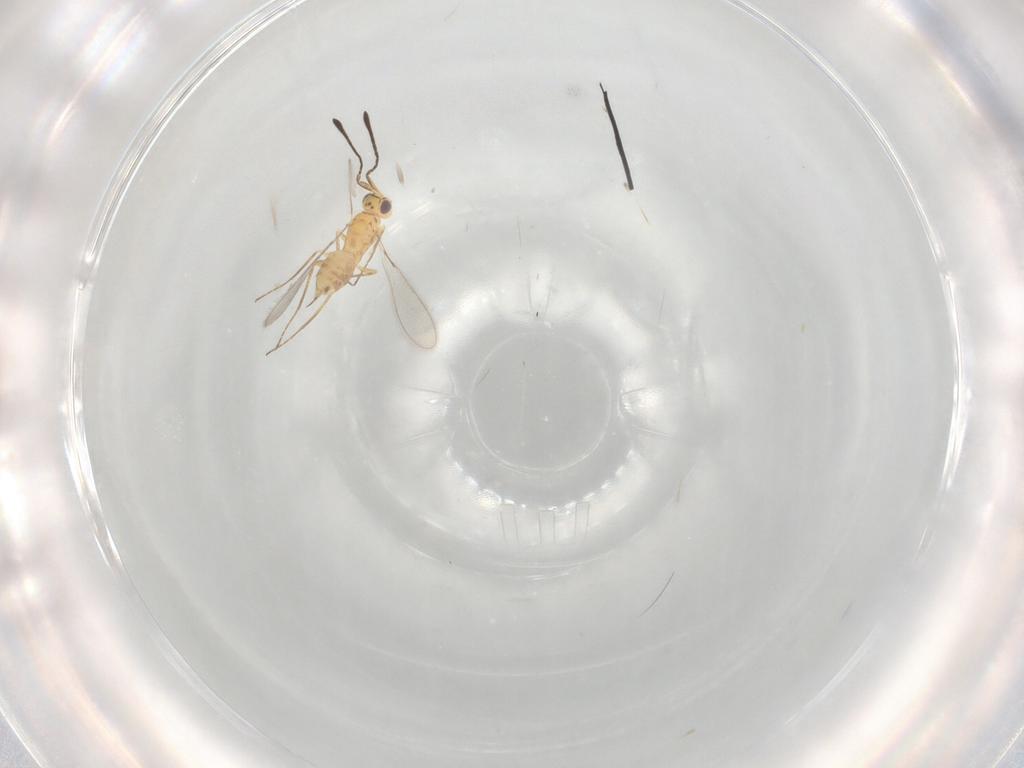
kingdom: Animalia
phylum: Arthropoda
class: Insecta
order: Hymenoptera
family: Mymaridae
